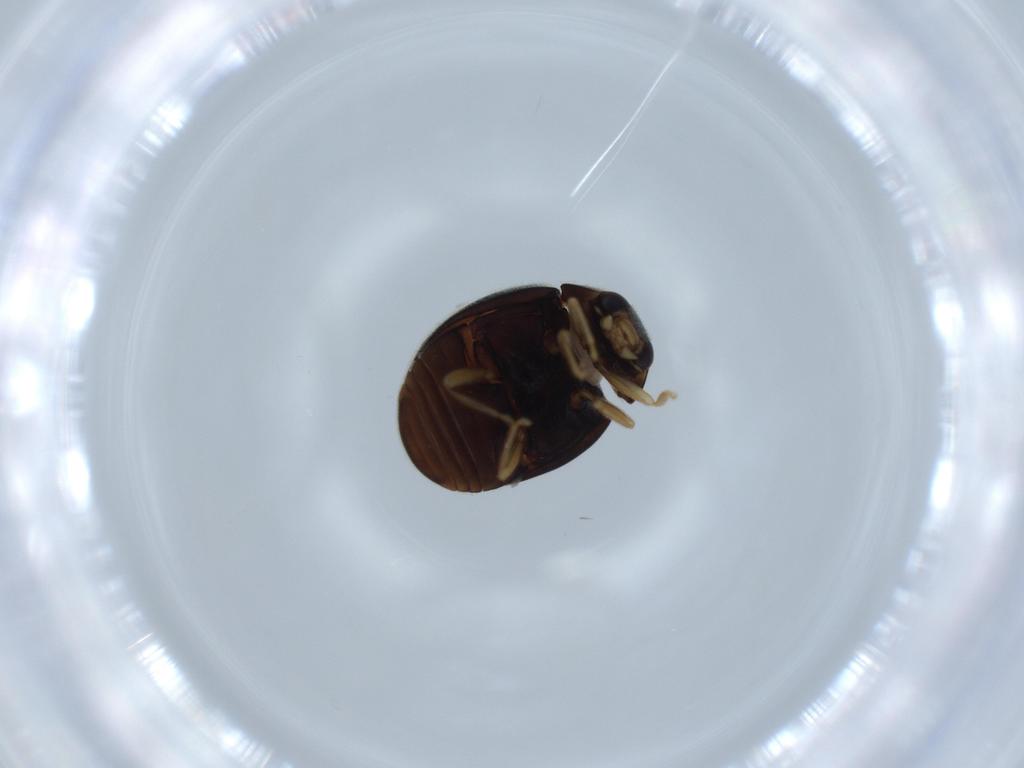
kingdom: Animalia
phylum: Arthropoda
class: Insecta
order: Coleoptera
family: Coccinellidae
